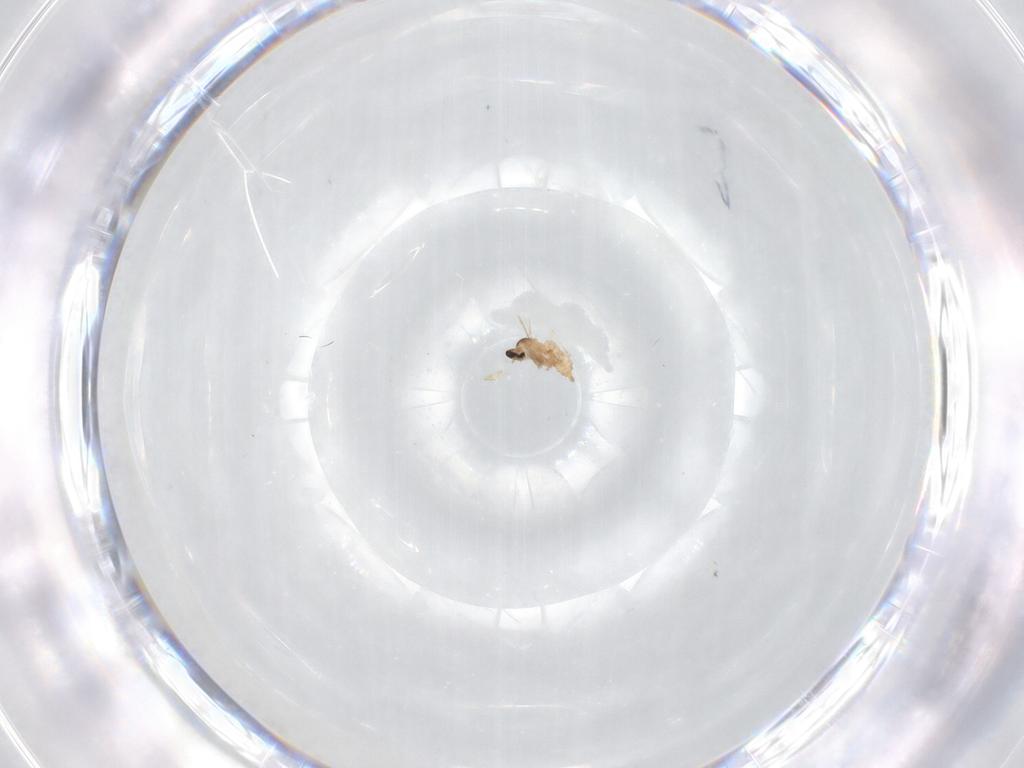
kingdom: Animalia
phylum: Arthropoda
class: Insecta
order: Diptera
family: Cecidomyiidae
